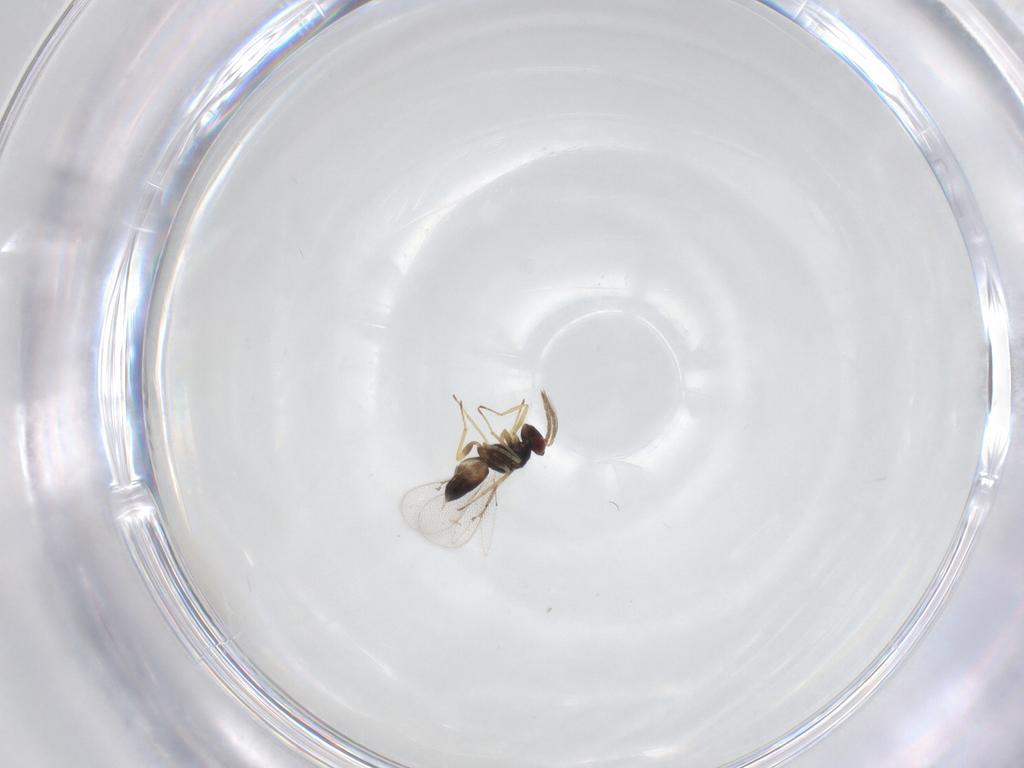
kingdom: Animalia
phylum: Arthropoda
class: Insecta
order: Hymenoptera
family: Eulophidae
